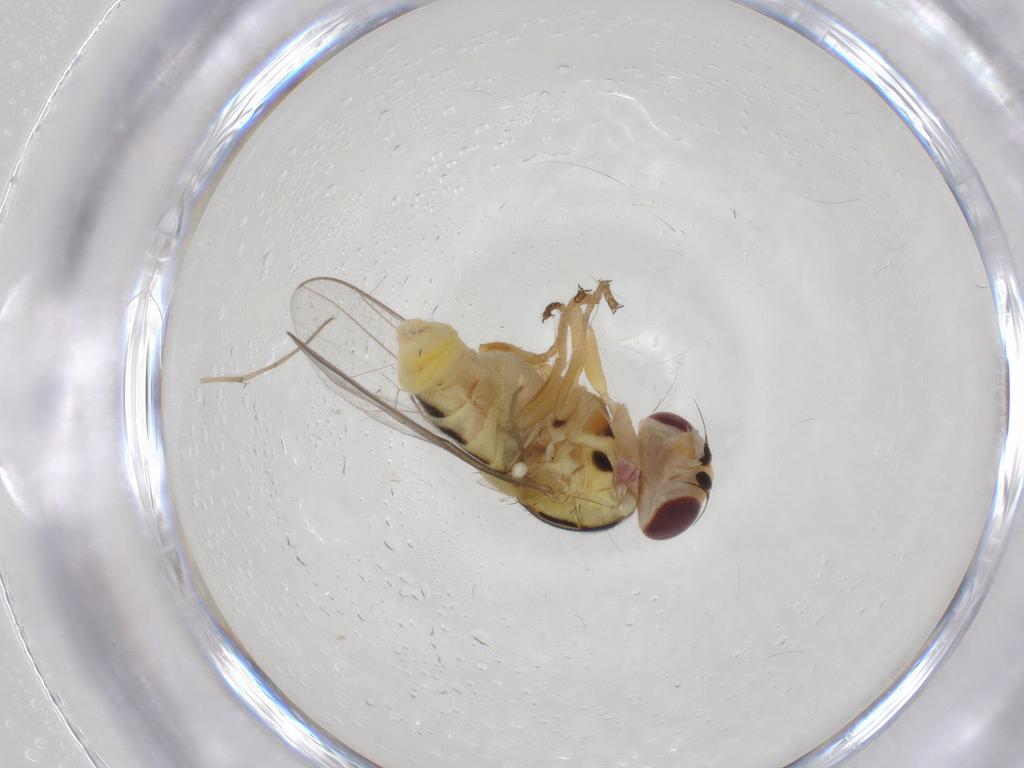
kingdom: Animalia
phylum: Arthropoda
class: Insecta
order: Diptera
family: Chloropidae
